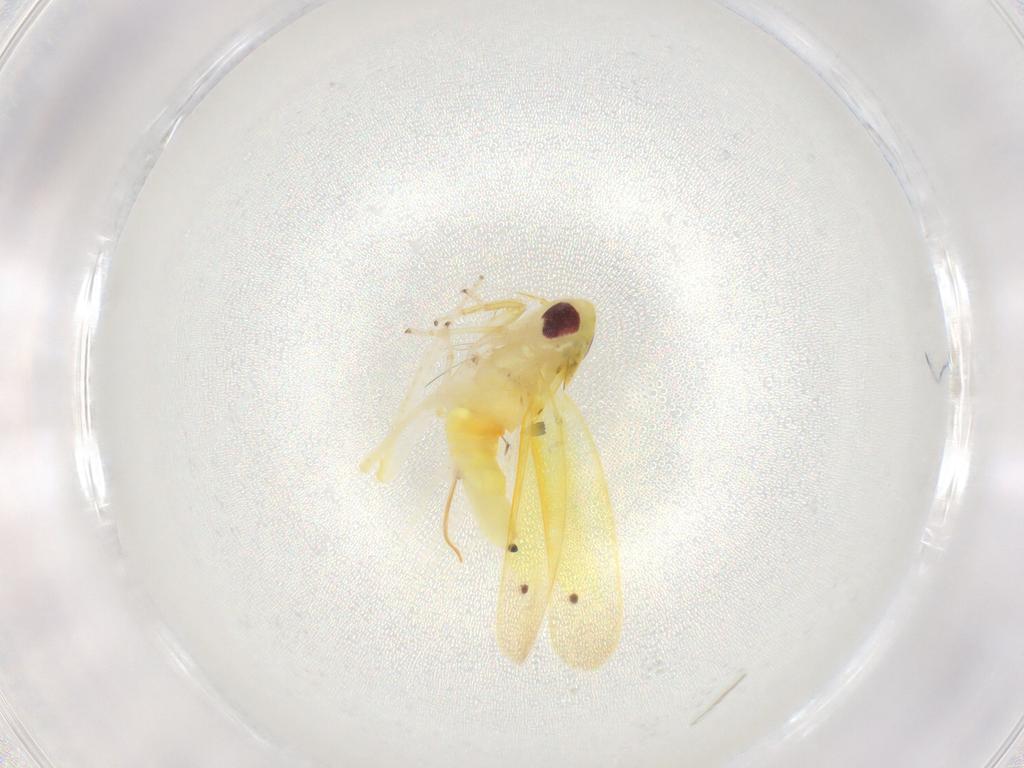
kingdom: Animalia
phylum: Arthropoda
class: Insecta
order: Hemiptera
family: Cicadellidae
